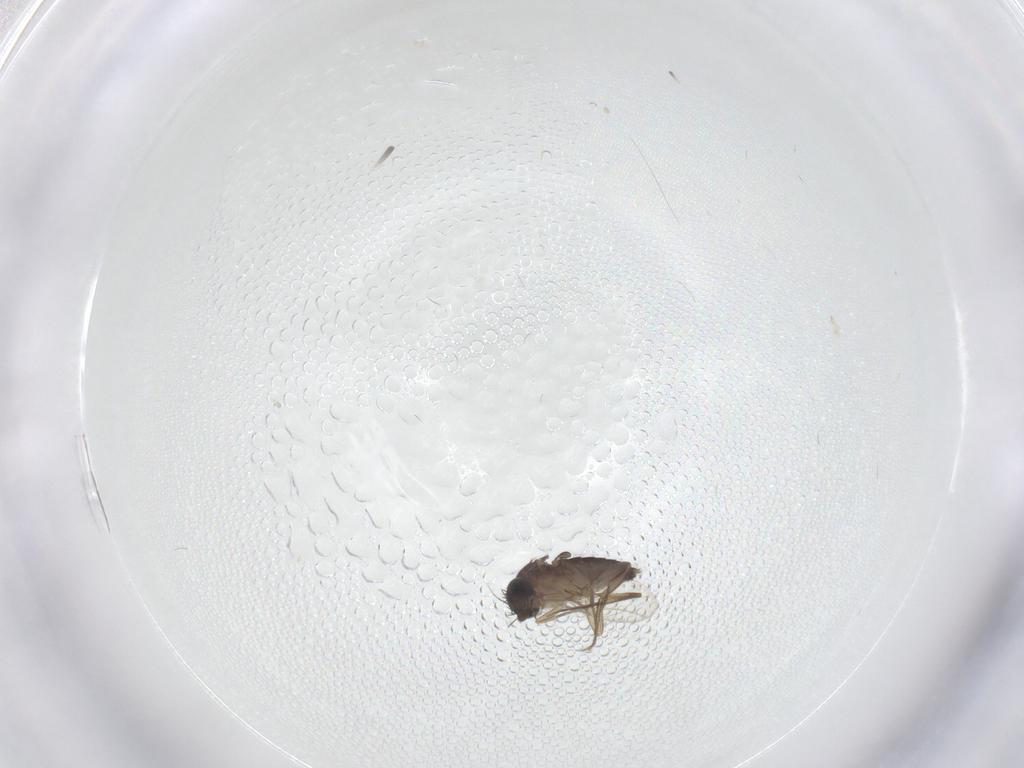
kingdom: Animalia
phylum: Arthropoda
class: Insecta
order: Diptera
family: Chironomidae
